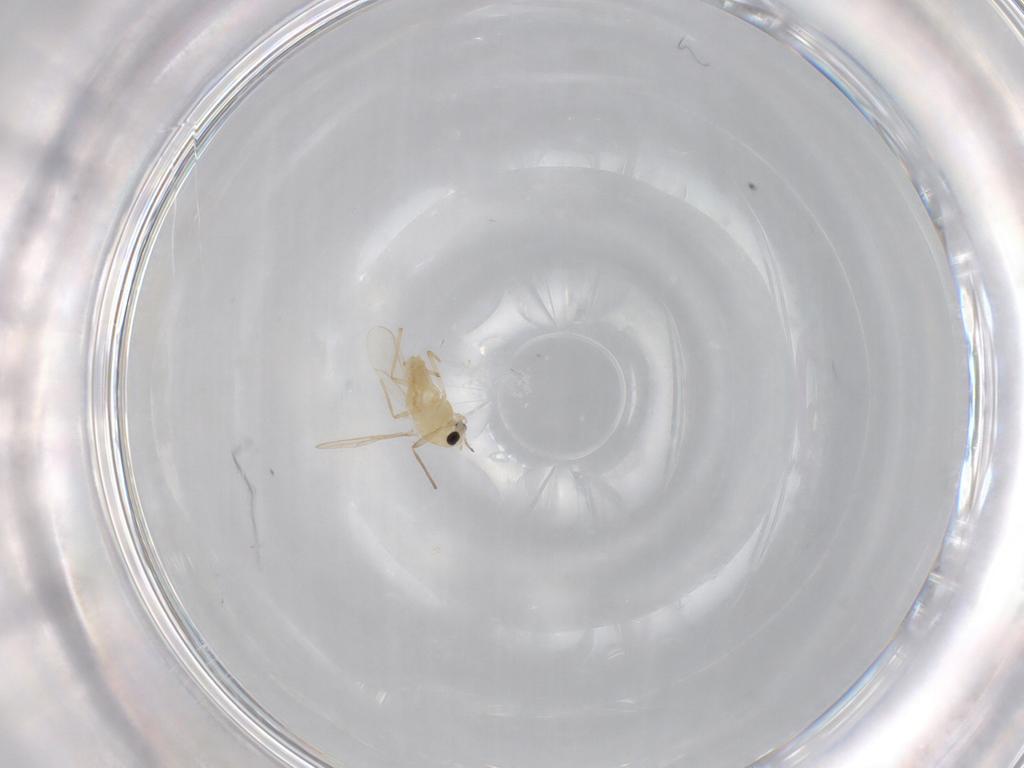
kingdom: Animalia
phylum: Arthropoda
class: Insecta
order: Diptera
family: Chironomidae
